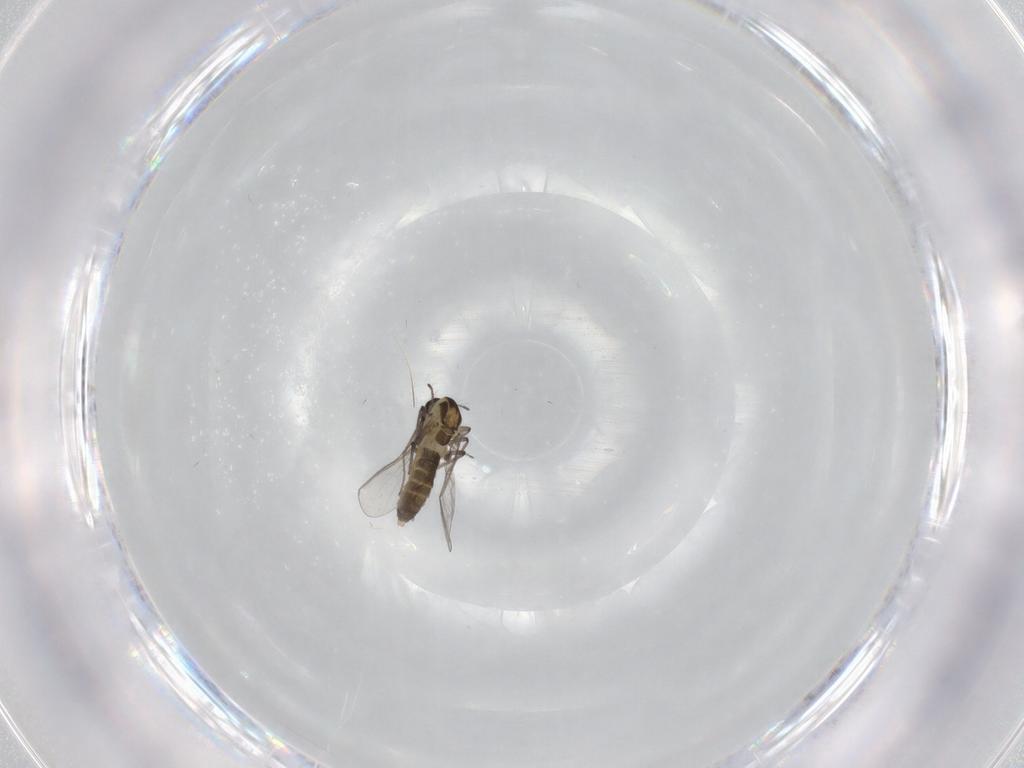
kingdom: Animalia
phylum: Arthropoda
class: Insecta
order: Diptera
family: Chironomidae
